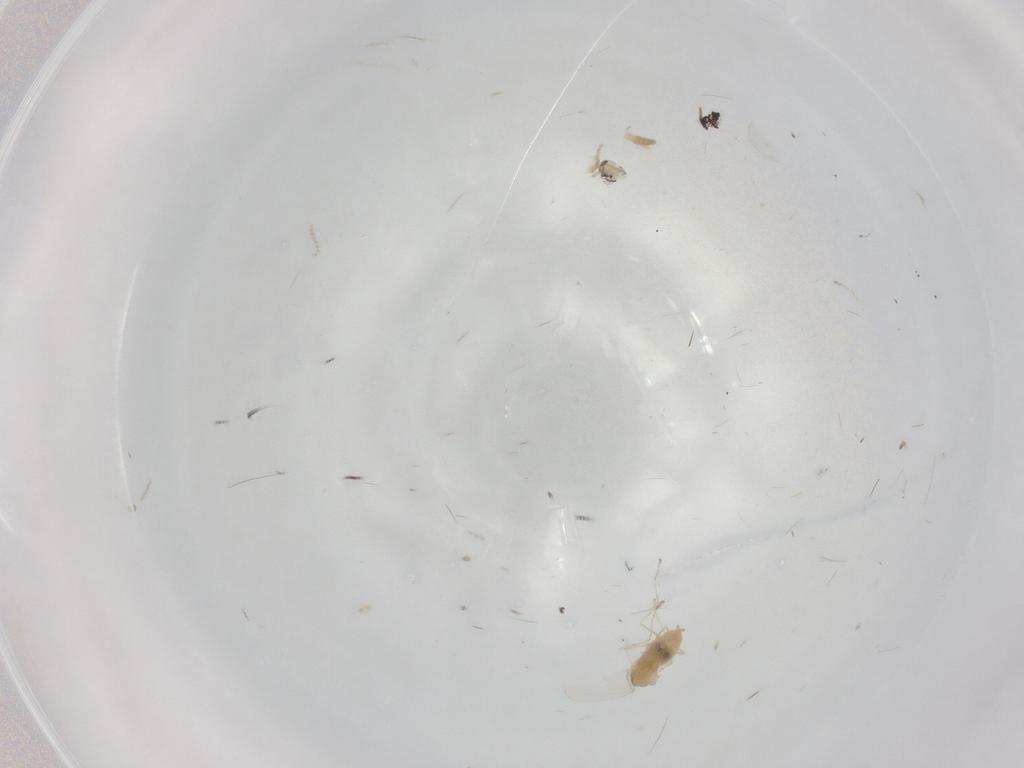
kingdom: Animalia
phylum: Arthropoda
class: Insecta
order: Diptera
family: Cecidomyiidae
